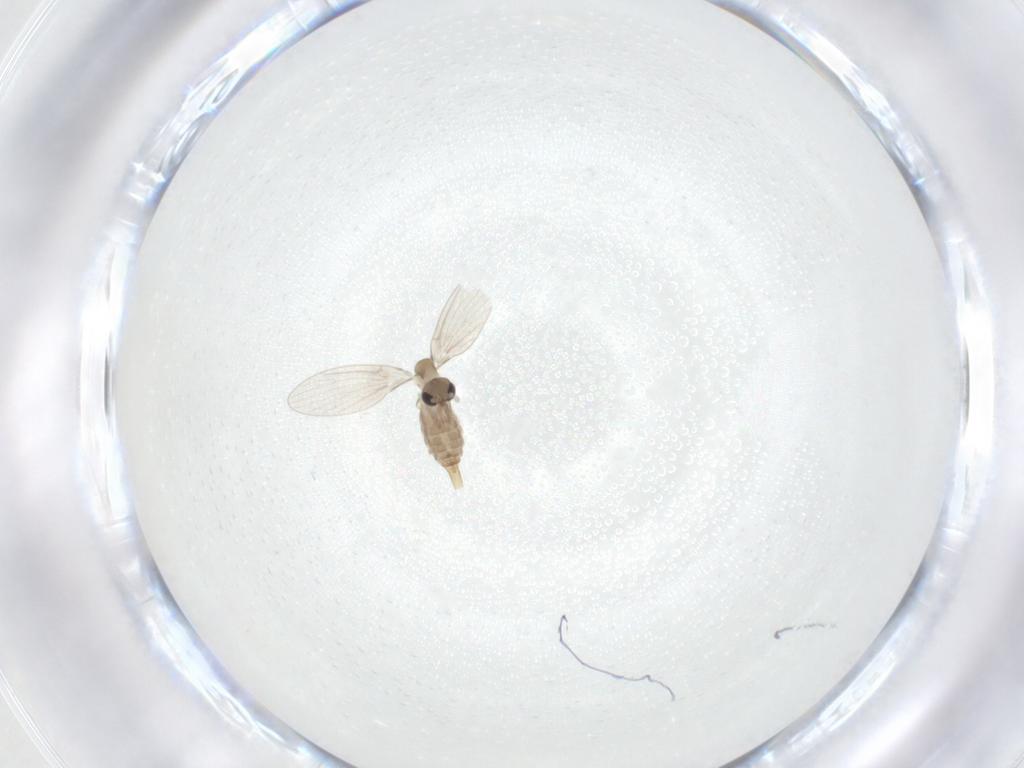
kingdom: Animalia
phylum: Arthropoda
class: Insecta
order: Diptera
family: Psychodidae
